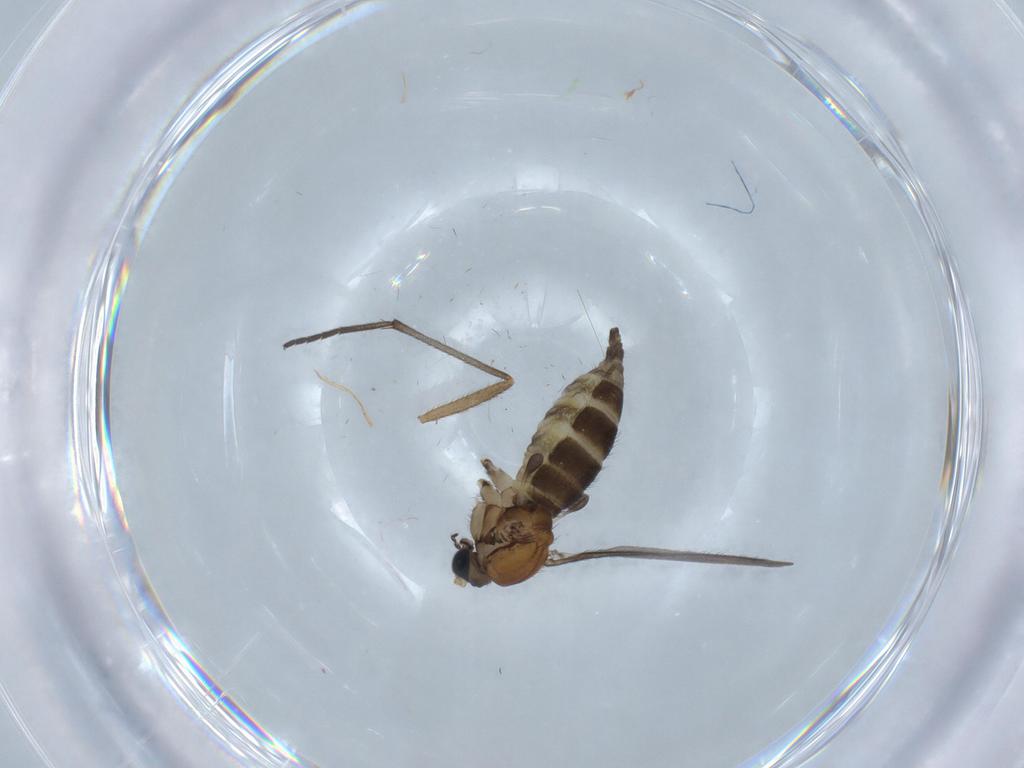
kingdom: Animalia
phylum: Arthropoda
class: Insecta
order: Diptera
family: Sciaridae
